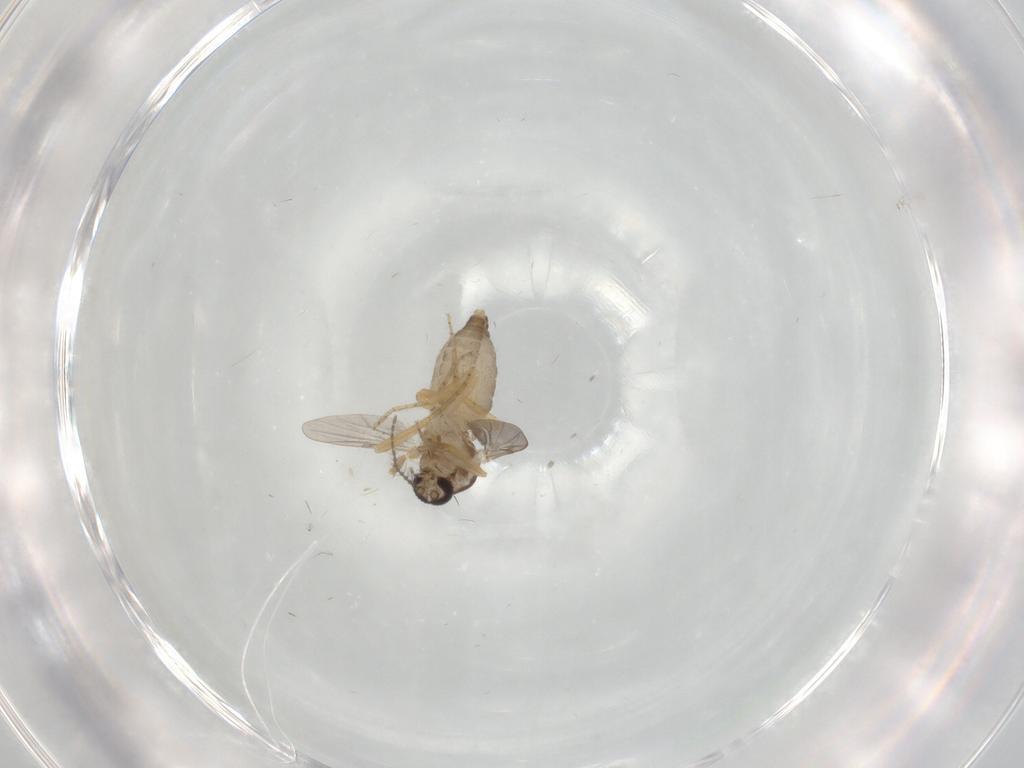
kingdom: Animalia
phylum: Arthropoda
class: Insecta
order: Diptera
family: Ceratopogonidae
